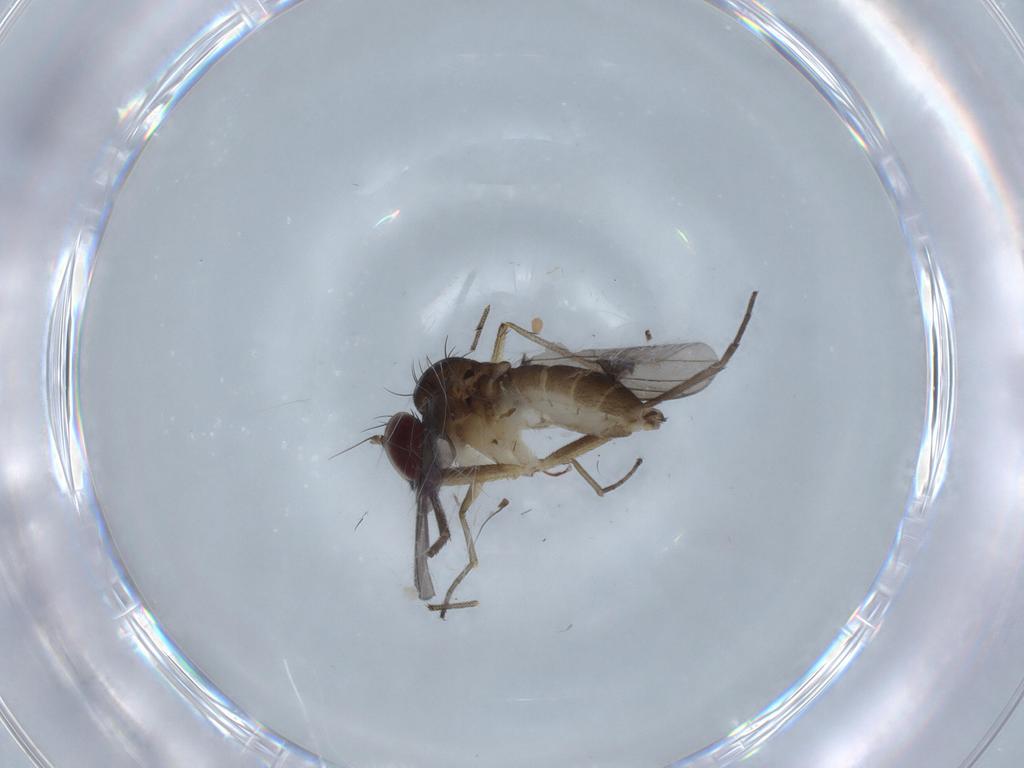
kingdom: Animalia
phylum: Arthropoda
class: Insecta
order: Diptera
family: Dolichopodidae
